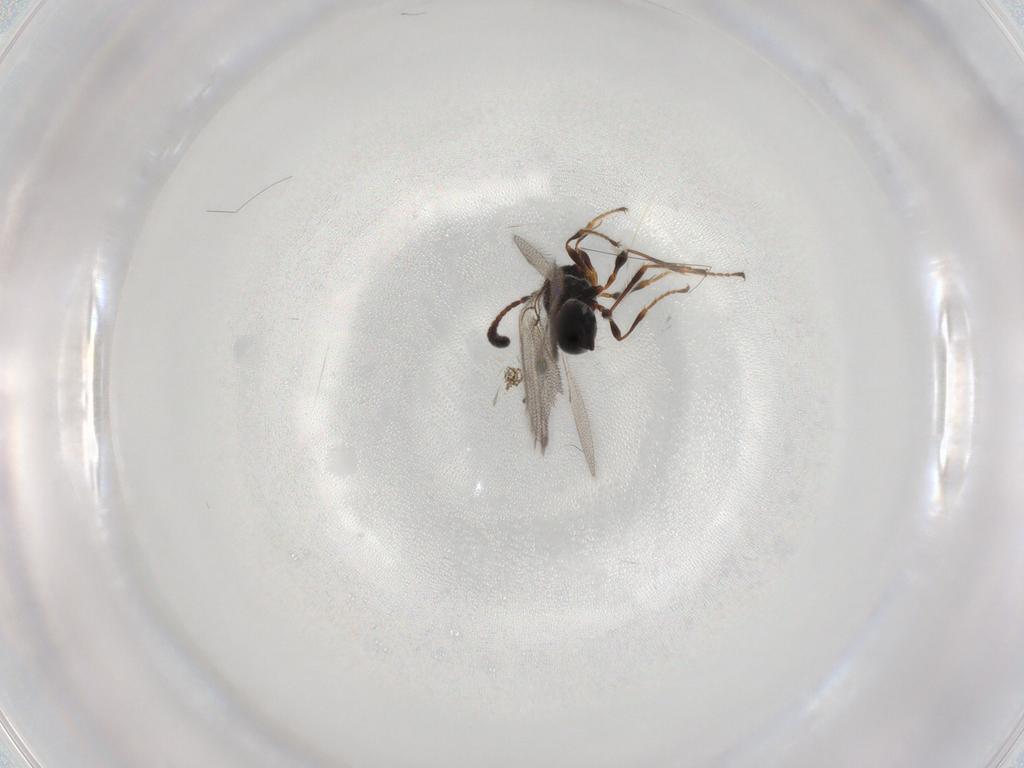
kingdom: Animalia
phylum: Arthropoda
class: Insecta
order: Hymenoptera
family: Diapriidae
